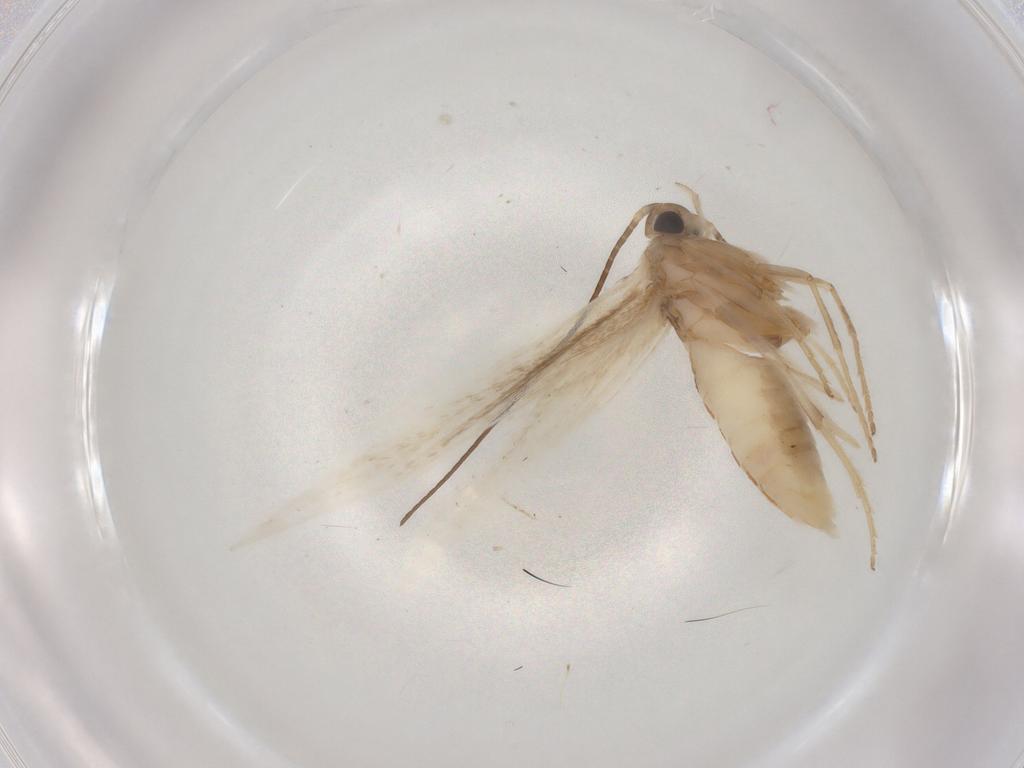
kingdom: Animalia
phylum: Arthropoda
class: Insecta
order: Lepidoptera
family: Coleophoridae
